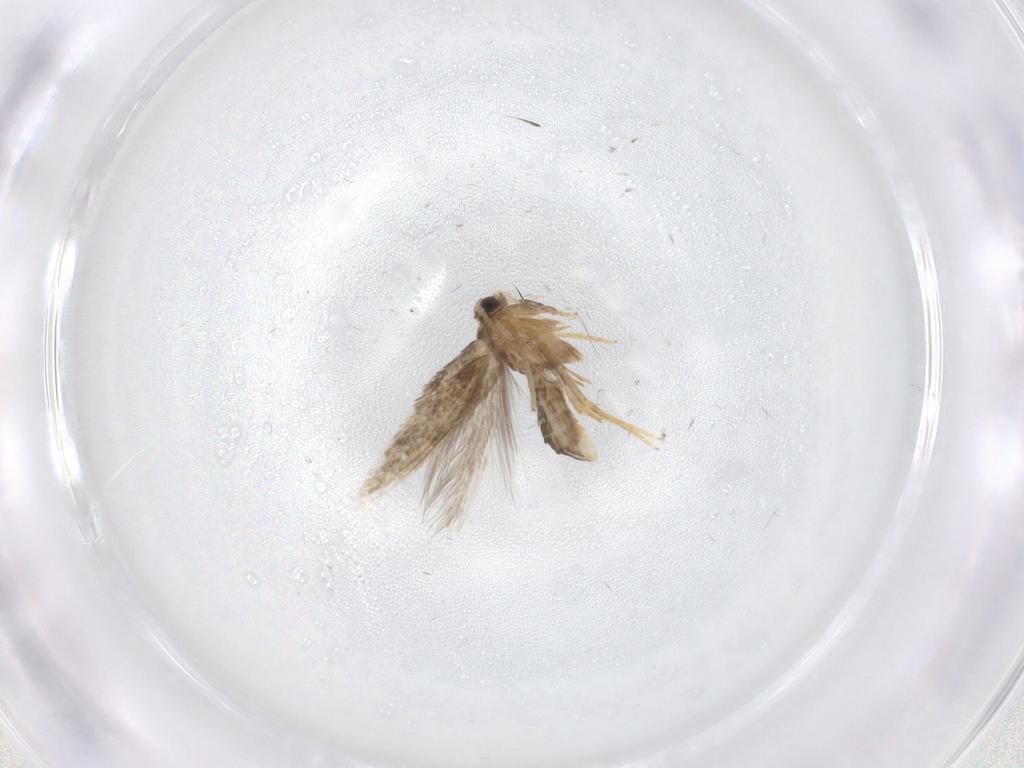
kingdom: Animalia
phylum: Arthropoda
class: Insecta
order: Lepidoptera
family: Nepticulidae
